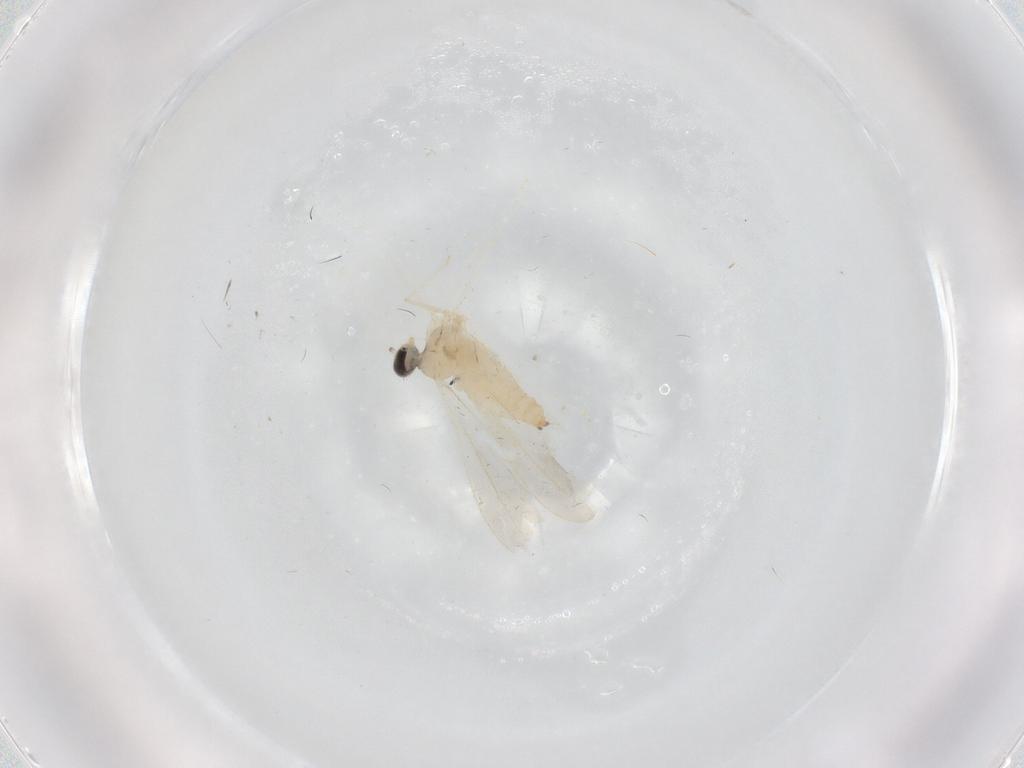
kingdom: Animalia
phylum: Arthropoda
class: Insecta
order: Diptera
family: Cecidomyiidae
